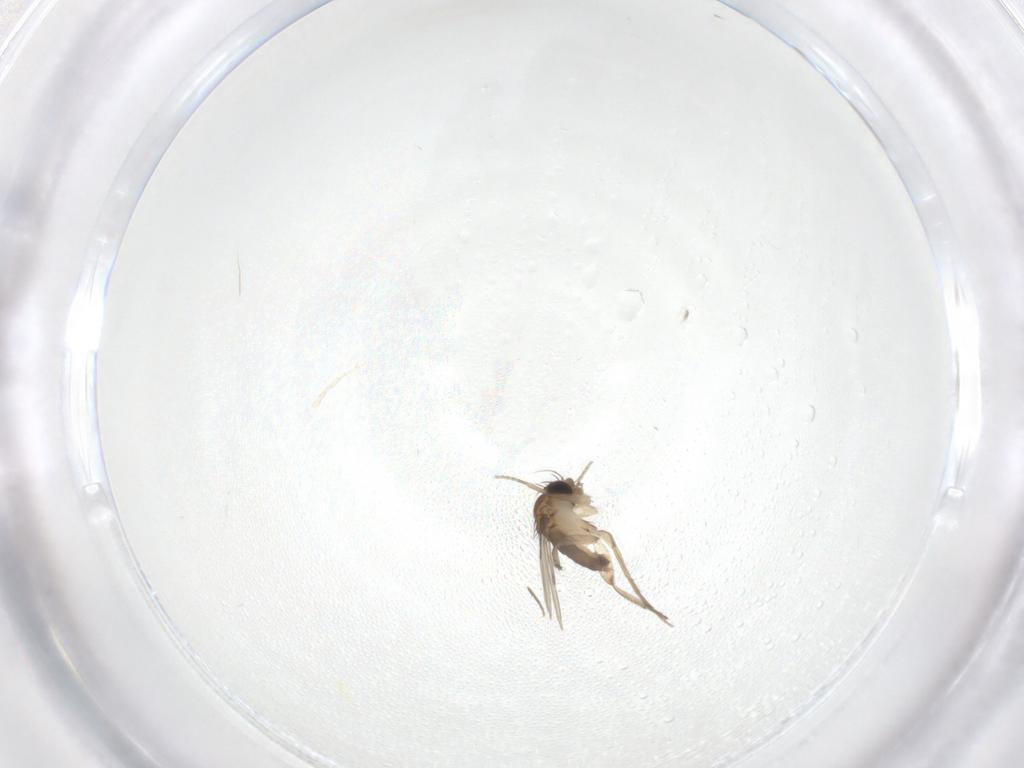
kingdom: Animalia
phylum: Arthropoda
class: Insecta
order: Diptera
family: Phoridae
